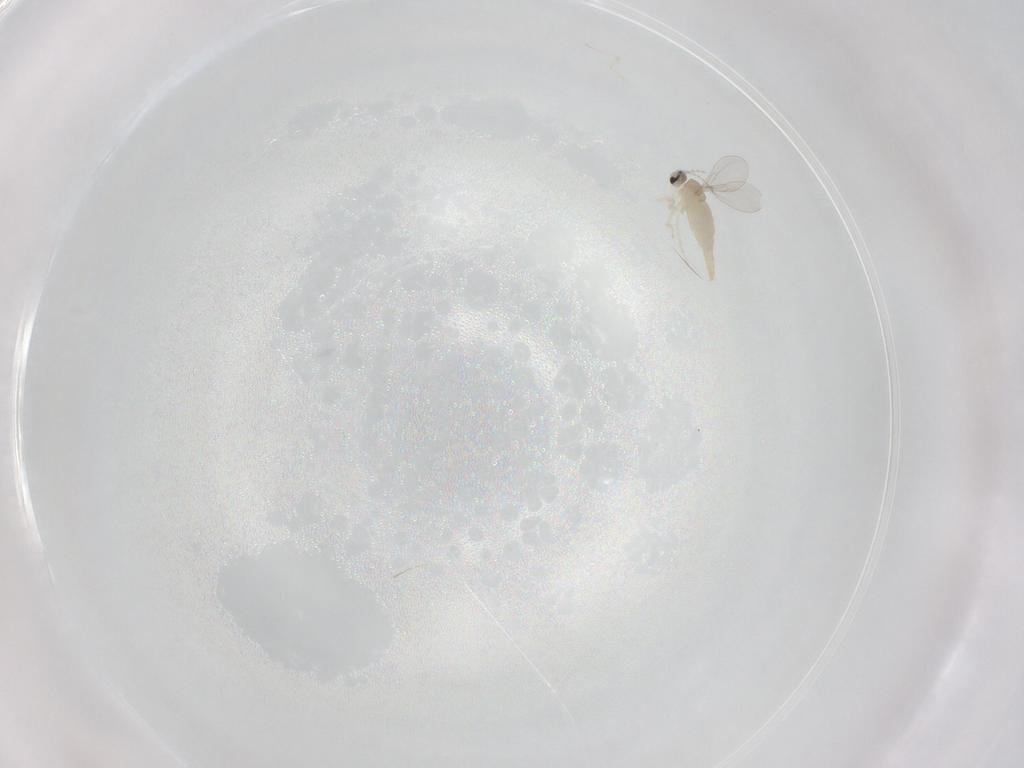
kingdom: Animalia
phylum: Arthropoda
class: Insecta
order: Diptera
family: Cecidomyiidae
